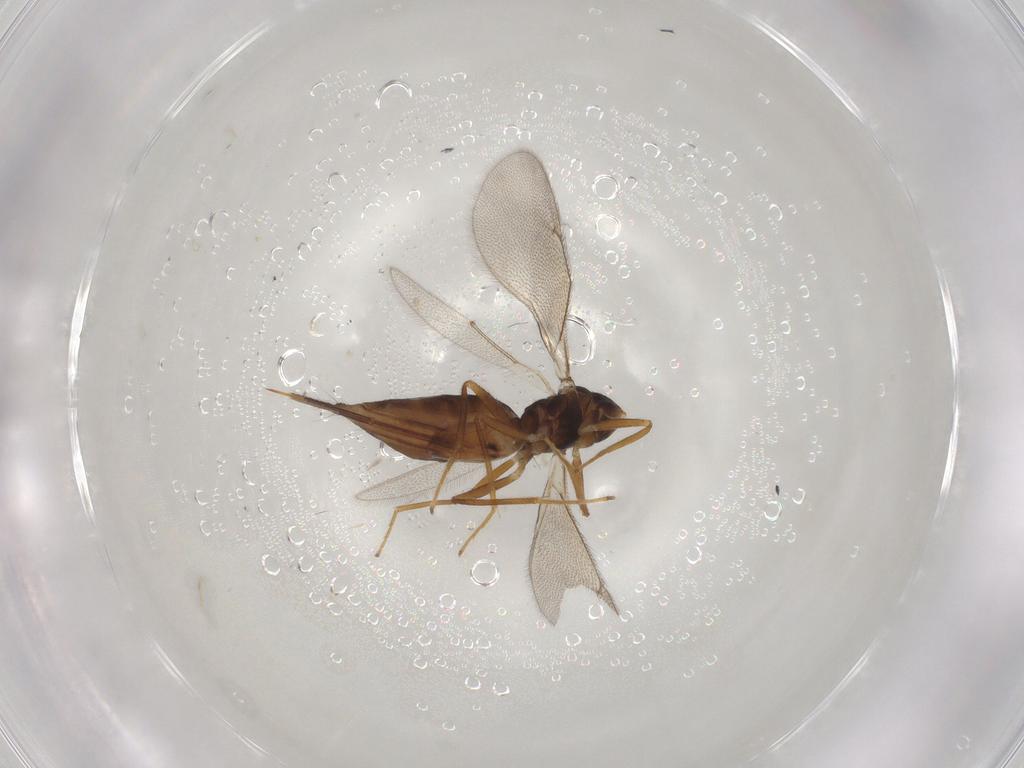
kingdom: Animalia
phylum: Arthropoda
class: Insecta
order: Hymenoptera
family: Eulophidae
